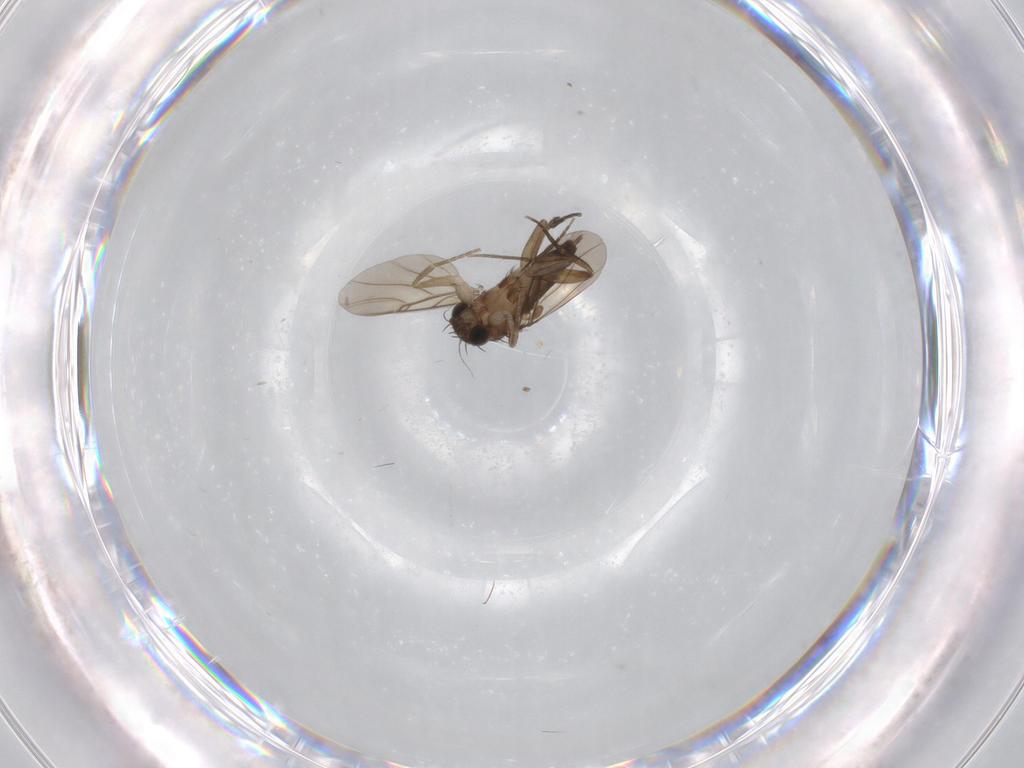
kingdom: Animalia
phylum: Arthropoda
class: Insecta
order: Diptera
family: Phoridae
